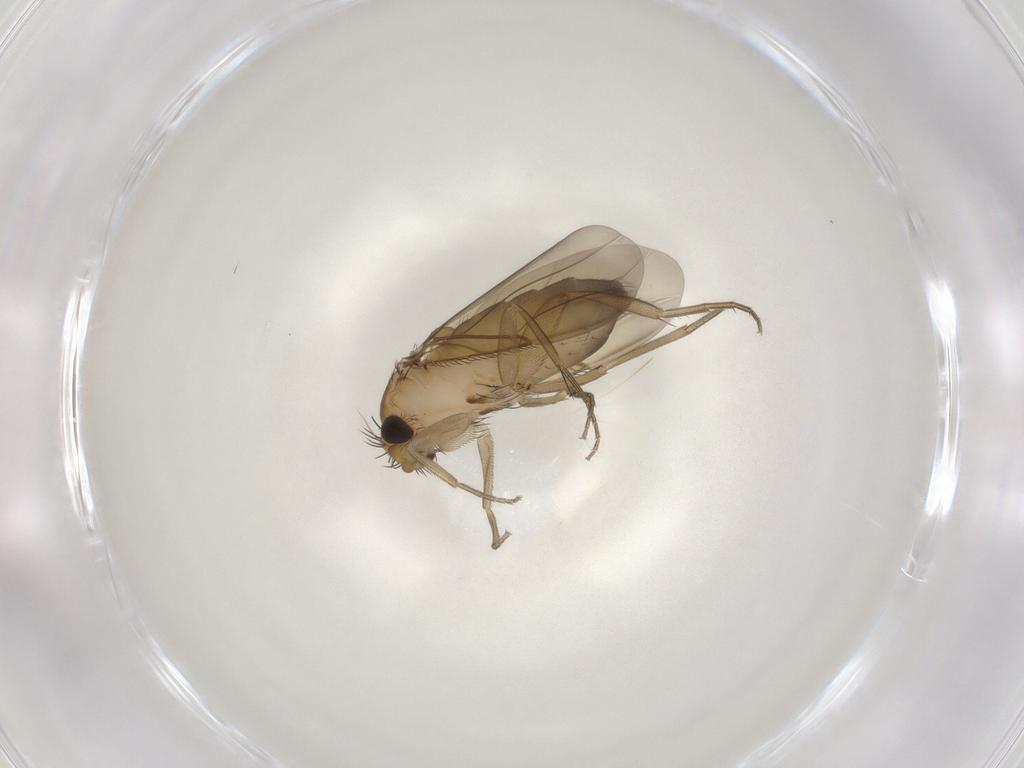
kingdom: Animalia
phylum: Arthropoda
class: Insecta
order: Diptera
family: Phoridae
